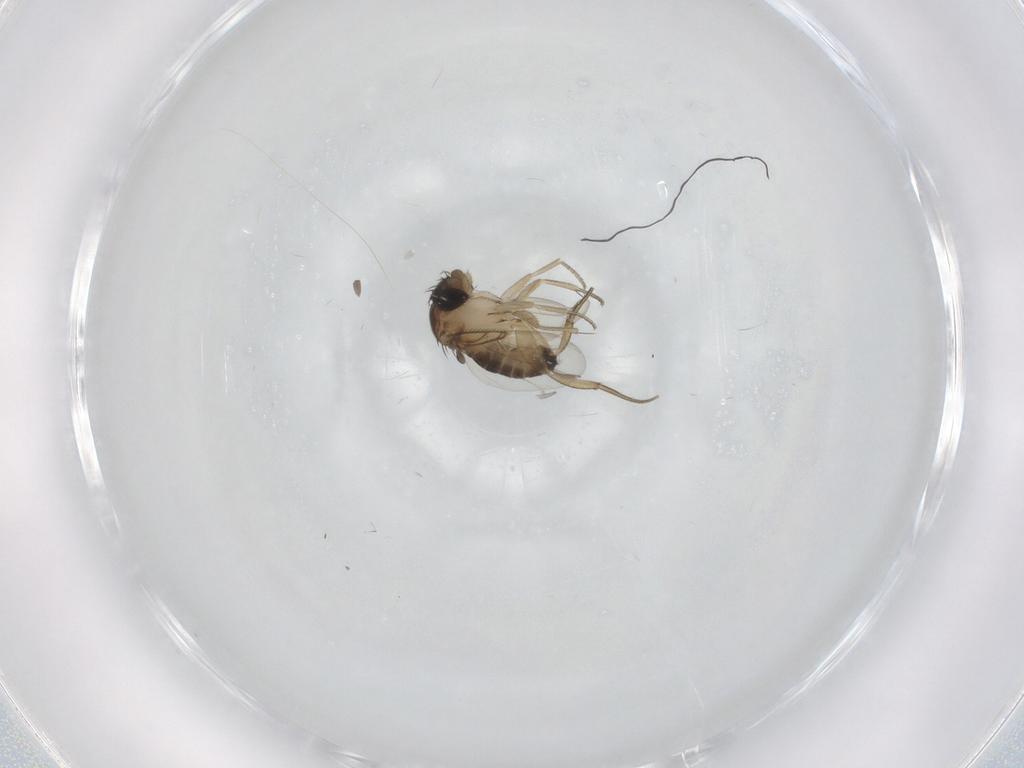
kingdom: Animalia
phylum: Arthropoda
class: Insecta
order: Diptera
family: Phoridae
